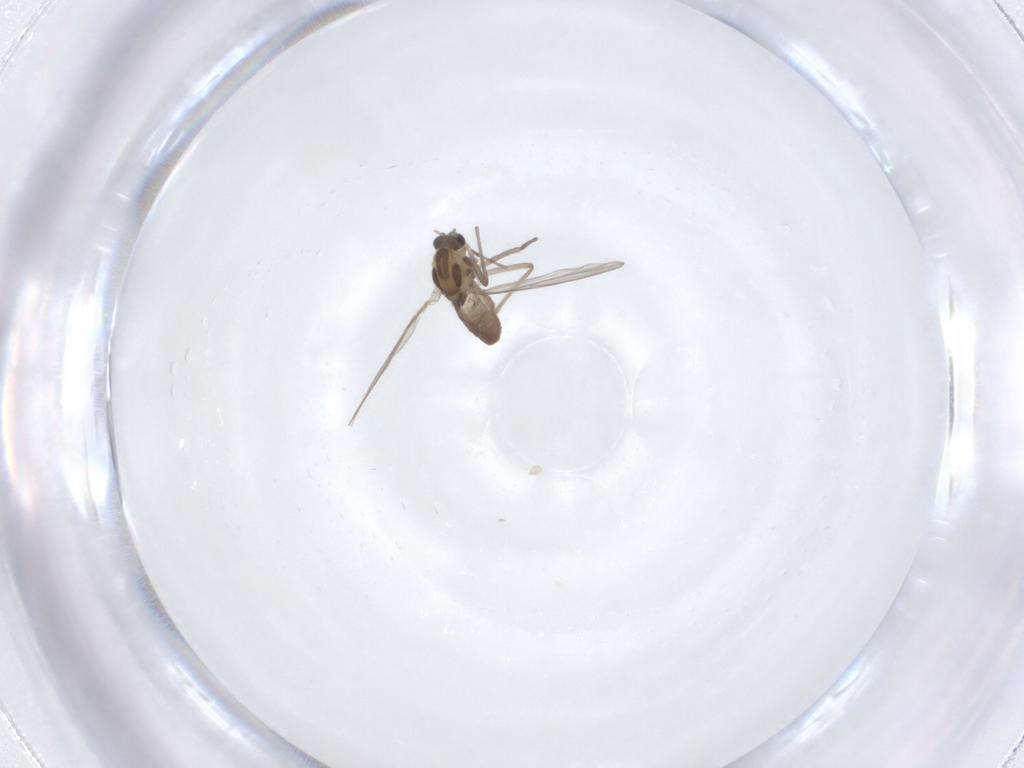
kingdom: Animalia
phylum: Arthropoda
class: Insecta
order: Diptera
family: Chironomidae
